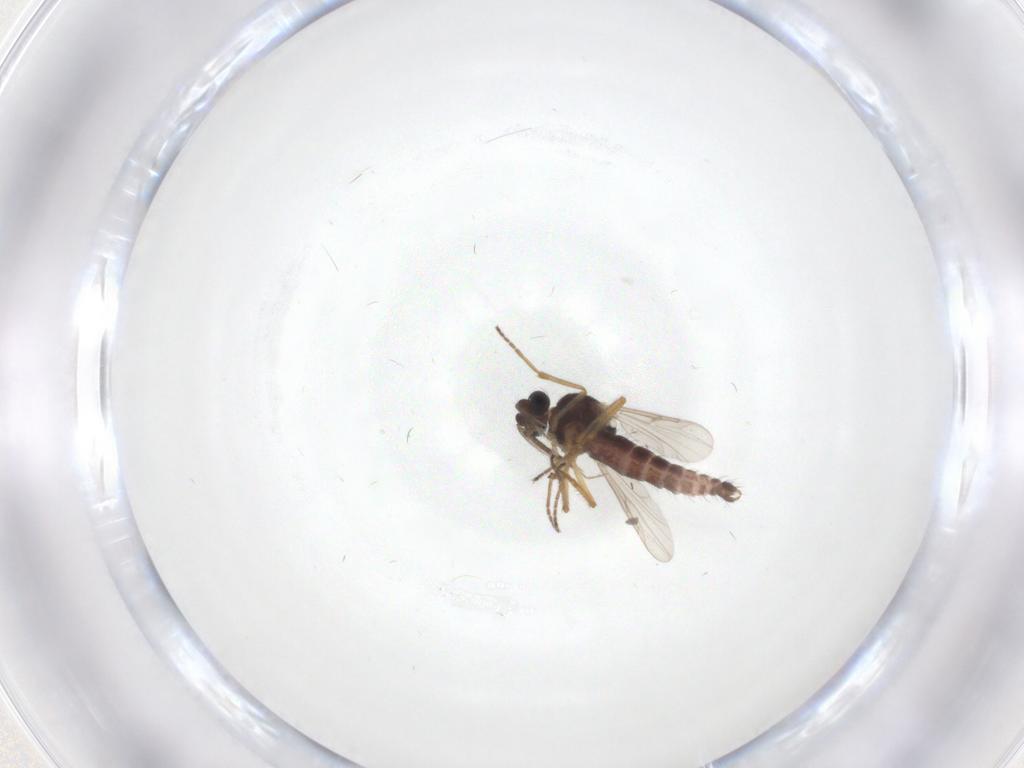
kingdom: Animalia
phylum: Arthropoda
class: Insecta
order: Diptera
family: Ceratopogonidae
